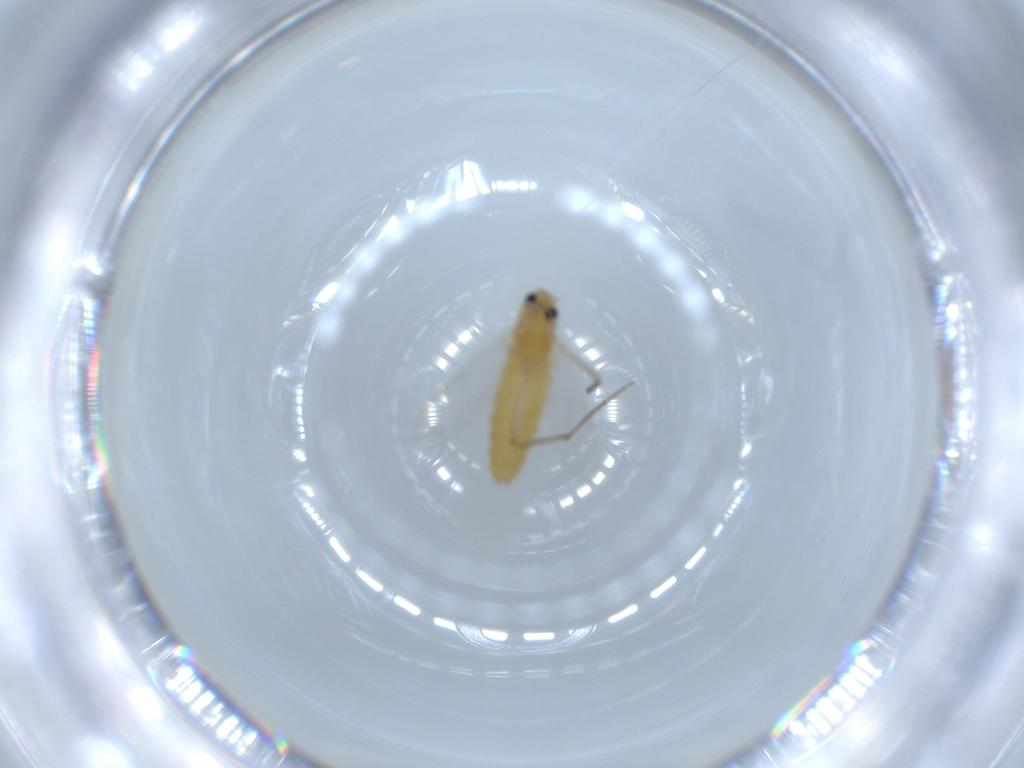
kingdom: Animalia
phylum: Arthropoda
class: Insecta
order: Diptera
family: Chironomidae
